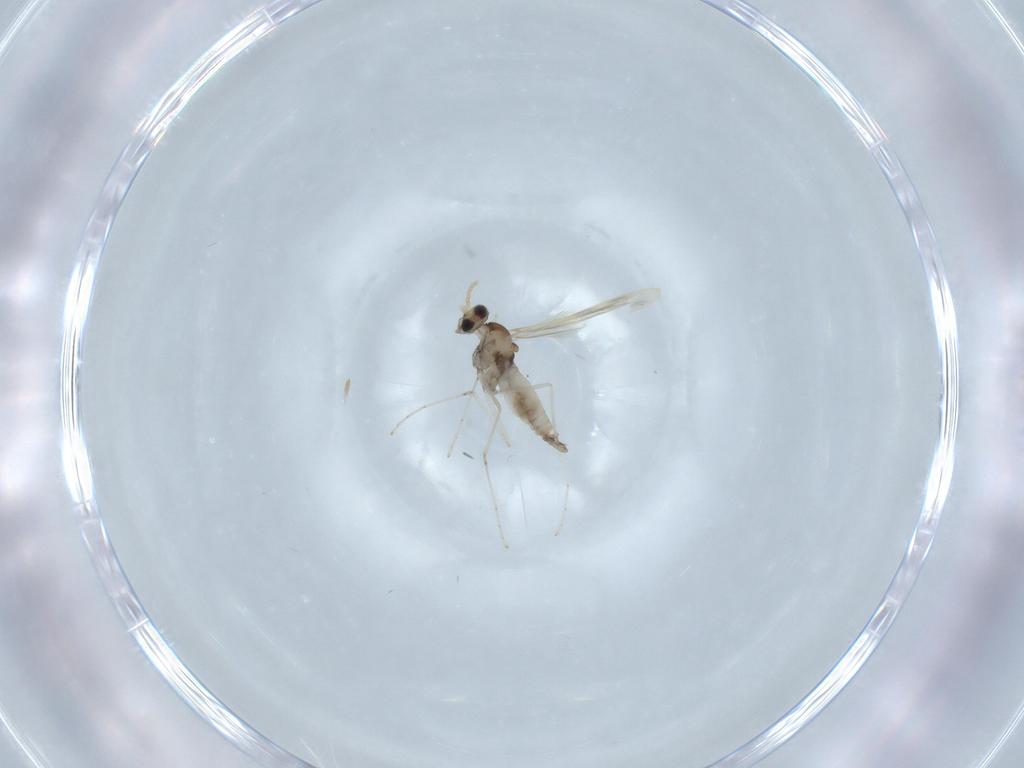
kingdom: Animalia
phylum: Arthropoda
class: Insecta
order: Diptera
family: Cecidomyiidae
